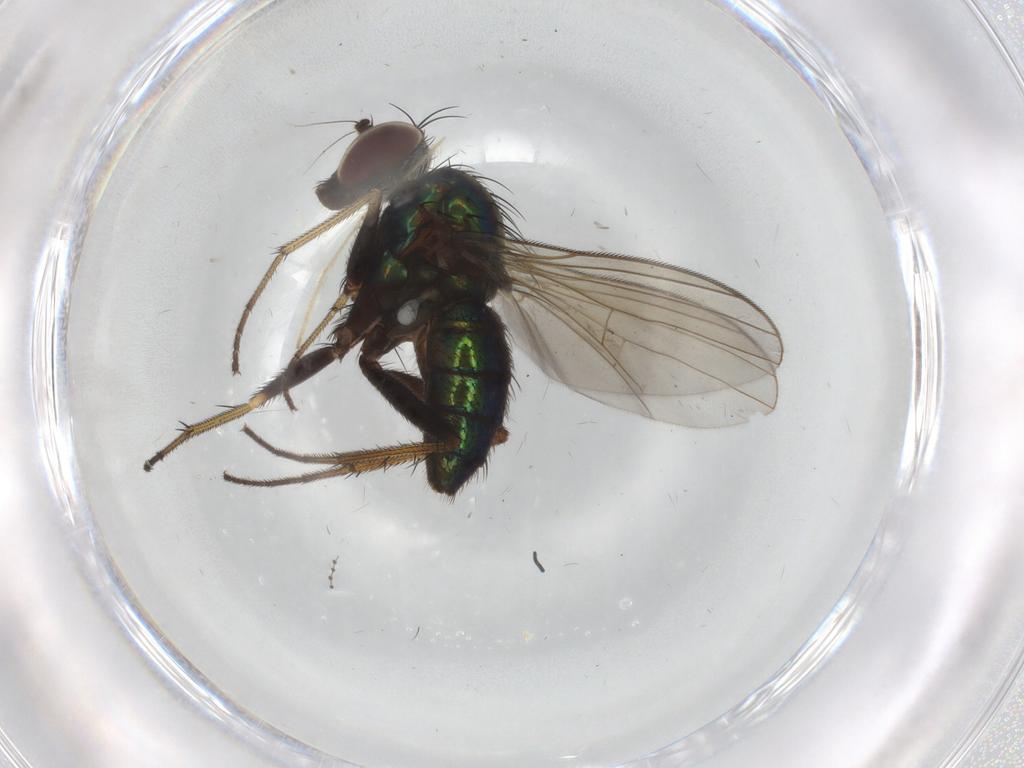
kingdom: Animalia
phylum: Arthropoda
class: Insecta
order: Diptera
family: Dolichopodidae
